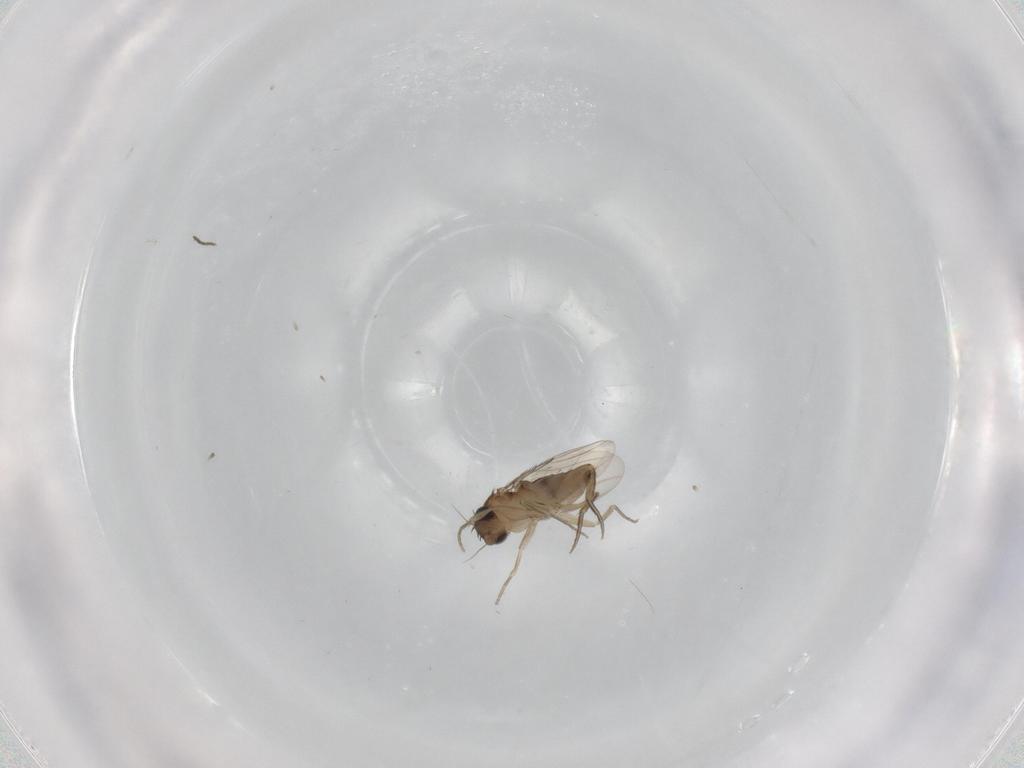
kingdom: Animalia
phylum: Arthropoda
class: Insecta
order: Diptera
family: Phoridae
